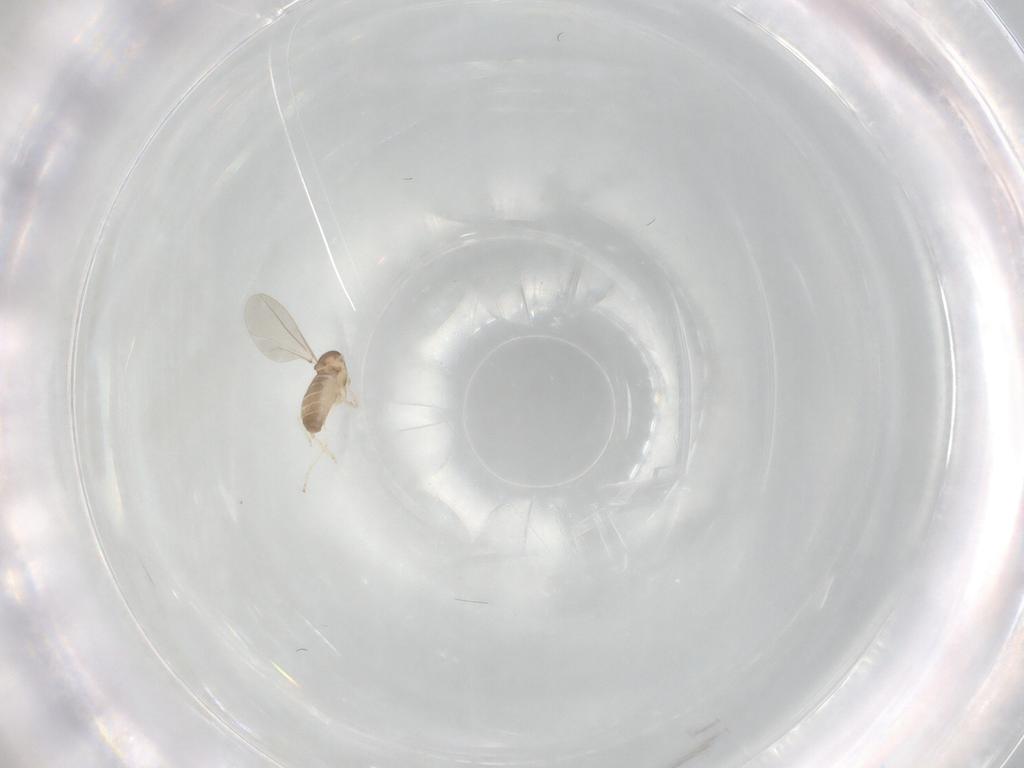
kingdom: Animalia
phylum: Arthropoda
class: Insecta
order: Diptera
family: Cecidomyiidae
